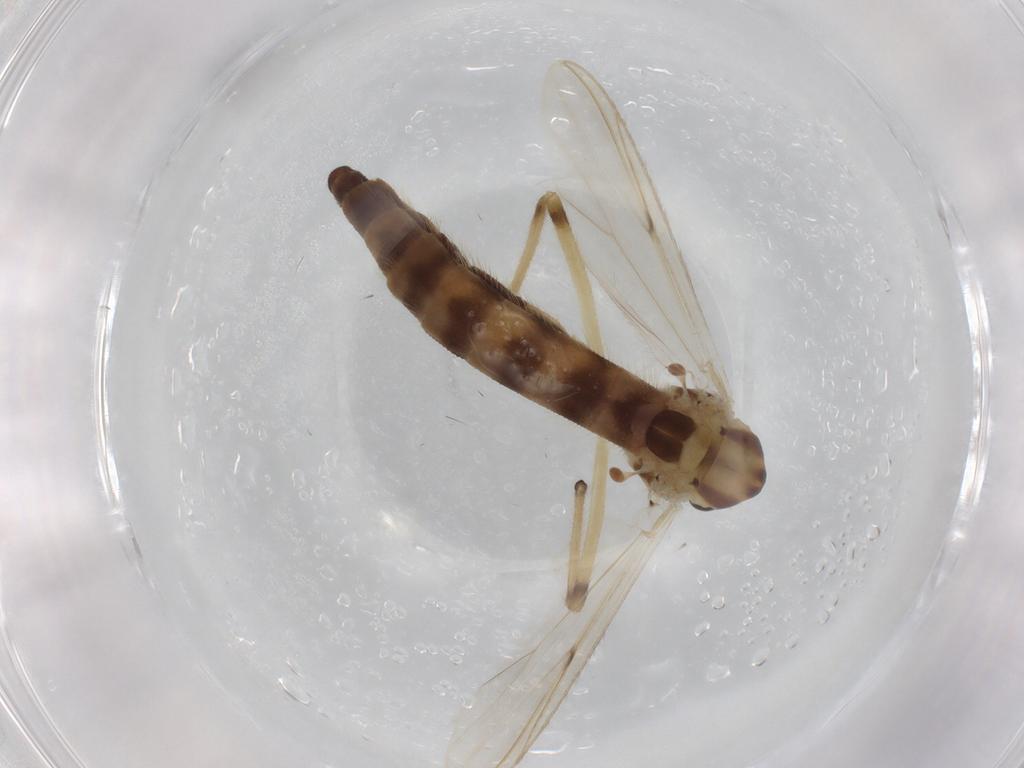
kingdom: Animalia
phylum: Arthropoda
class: Insecta
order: Diptera
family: Chironomidae
